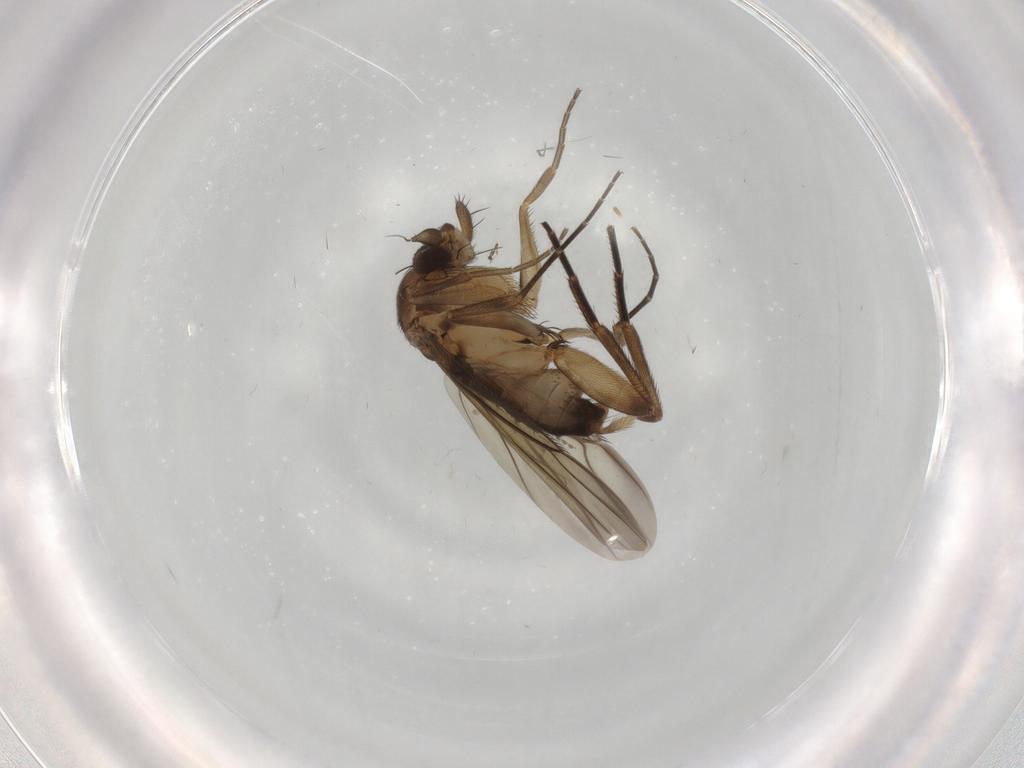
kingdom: Animalia
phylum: Arthropoda
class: Insecta
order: Diptera
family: Phoridae
